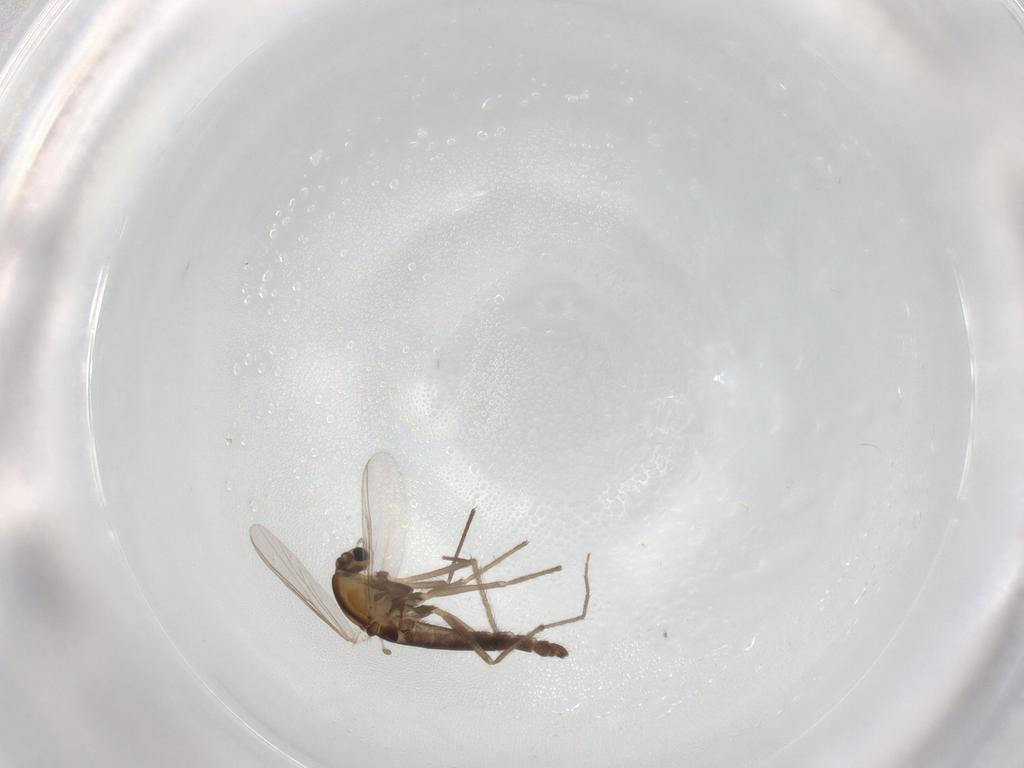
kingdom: Animalia
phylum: Arthropoda
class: Insecta
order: Diptera
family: Chironomidae
